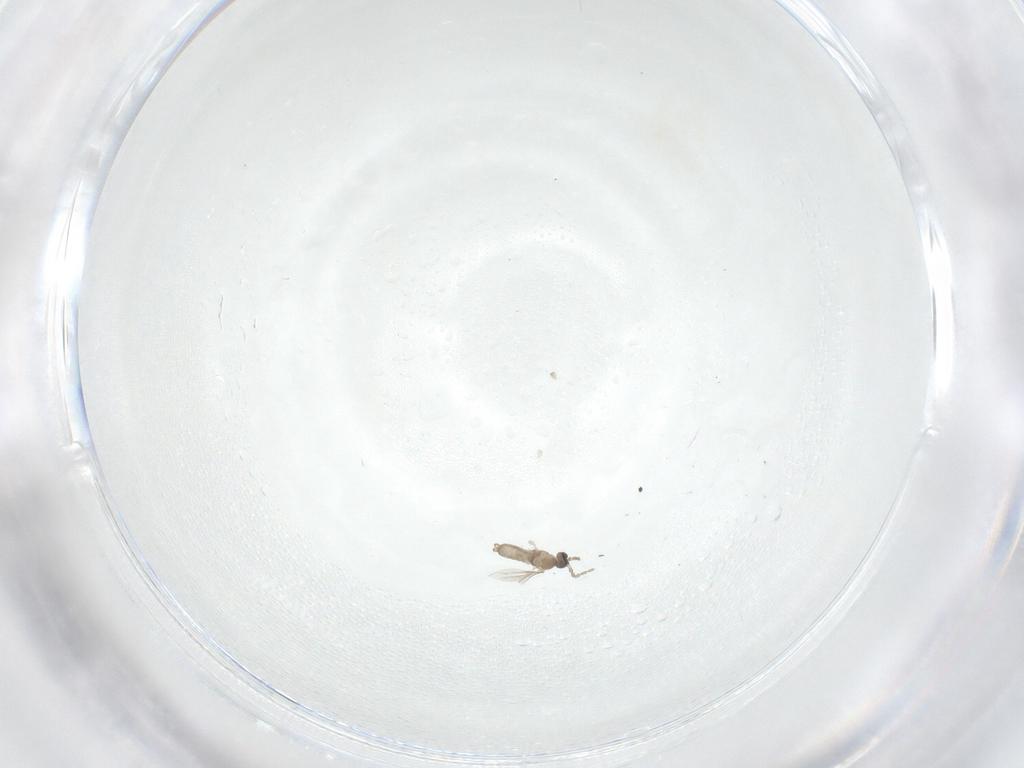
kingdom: Animalia
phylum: Arthropoda
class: Insecta
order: Diptera
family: Cecidomyiidae
